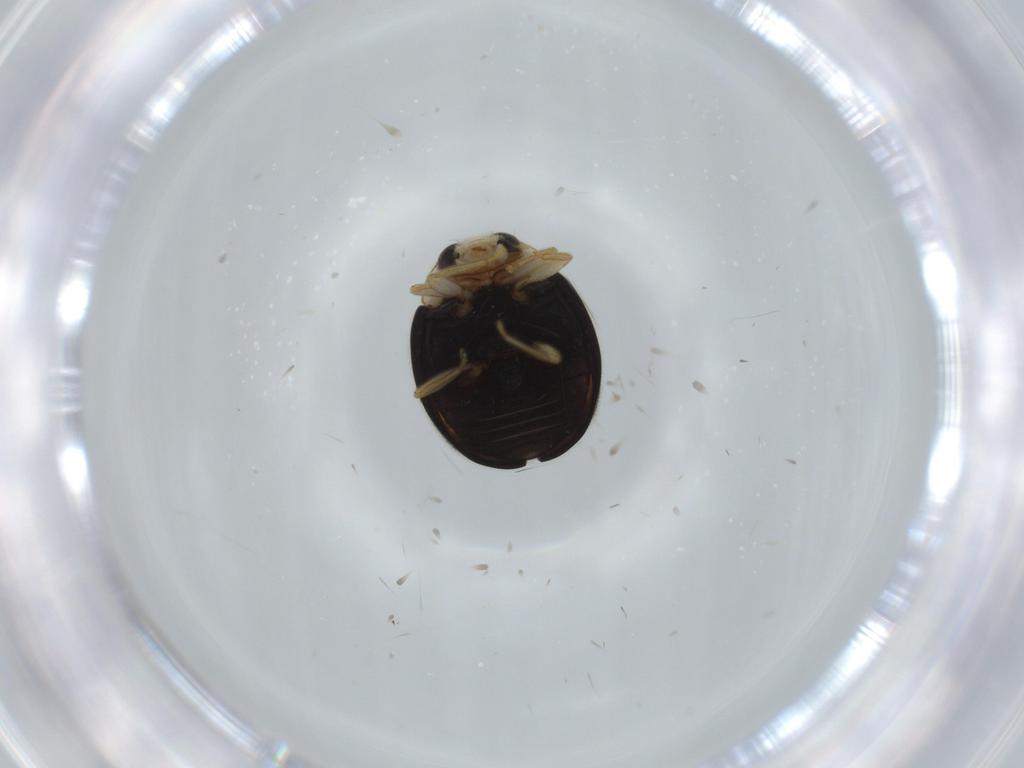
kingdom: Animalia
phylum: Arthropoda
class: Insecta
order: Coleoptera
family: Coccinellidae
